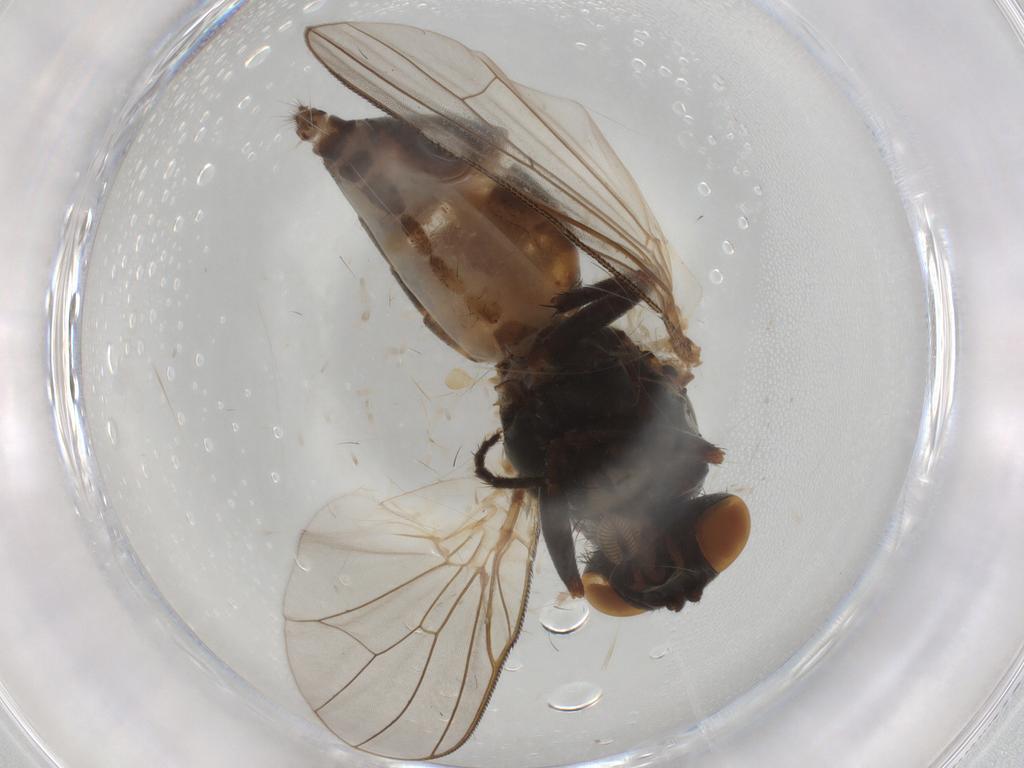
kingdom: Animalia
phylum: Arthropoda
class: Insecta
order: Diptera
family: Fannia
